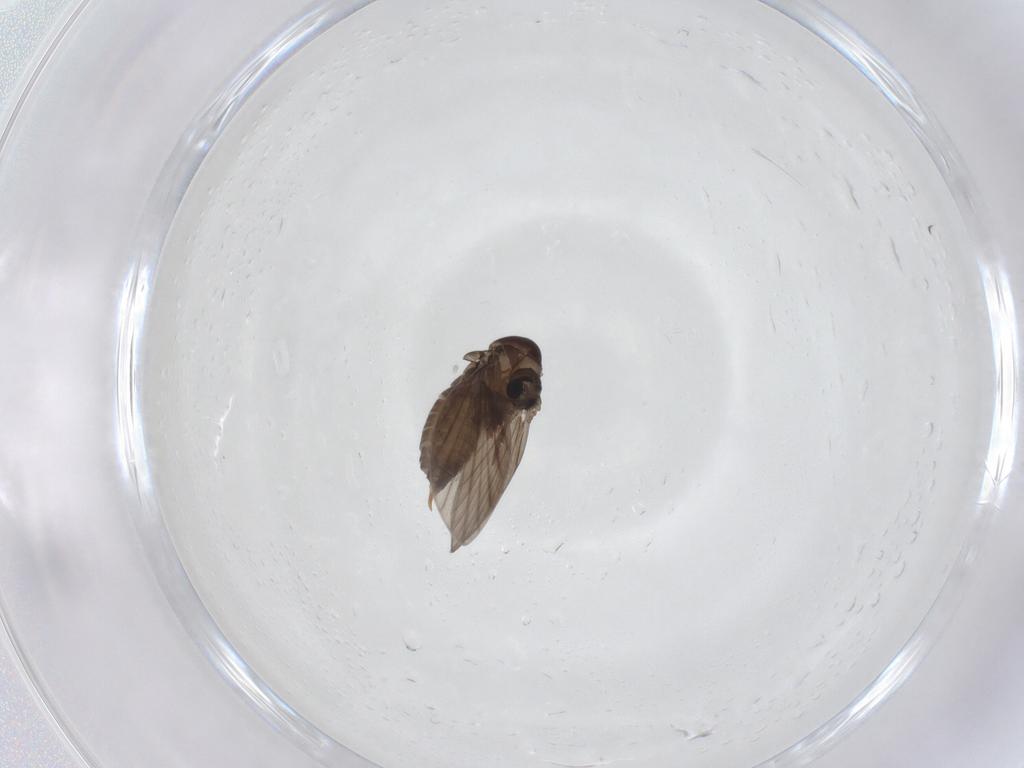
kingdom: Animalia
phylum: Arthropoda
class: Insecta
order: Diptera
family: Psychodidae
